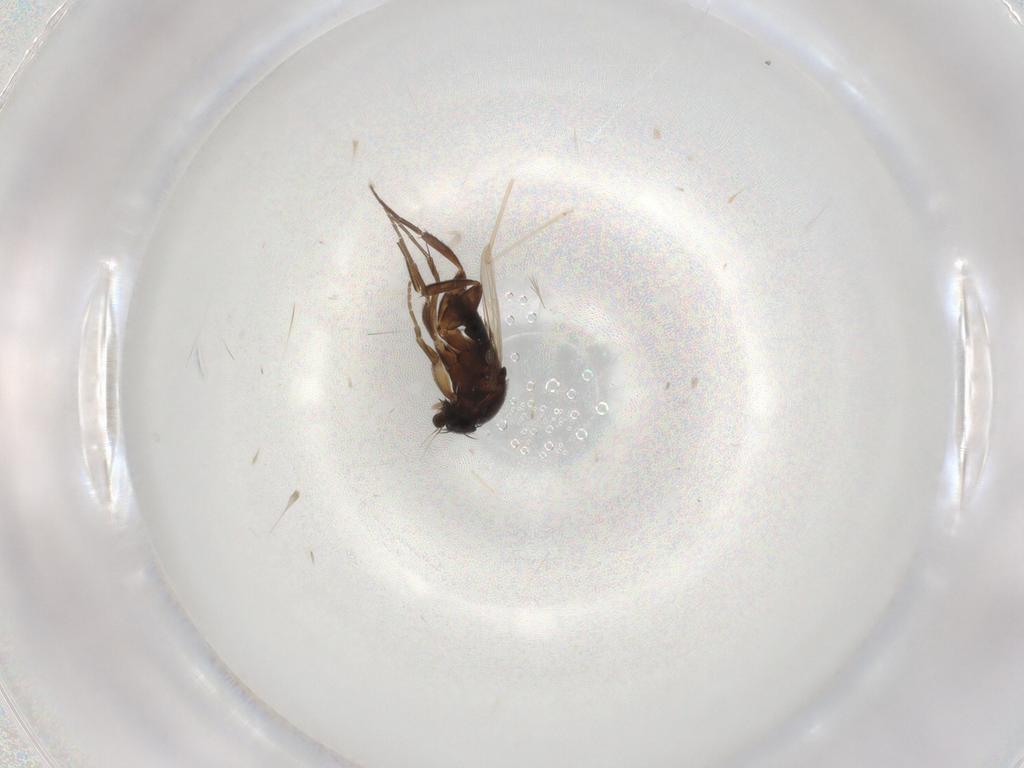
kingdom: Animalia
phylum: Arthropoda
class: Insecta
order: Diptera
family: Phoridae
